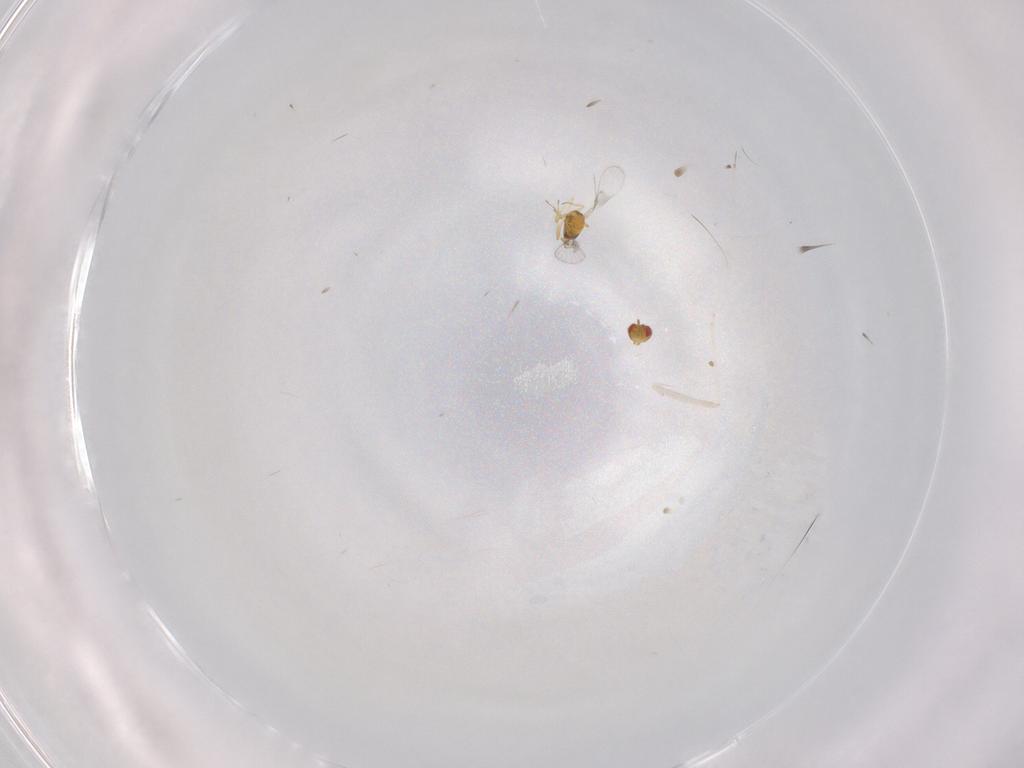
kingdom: Animalia
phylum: Arthropoda
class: Insecta
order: Hymenoptera
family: Trichogrammatidae
